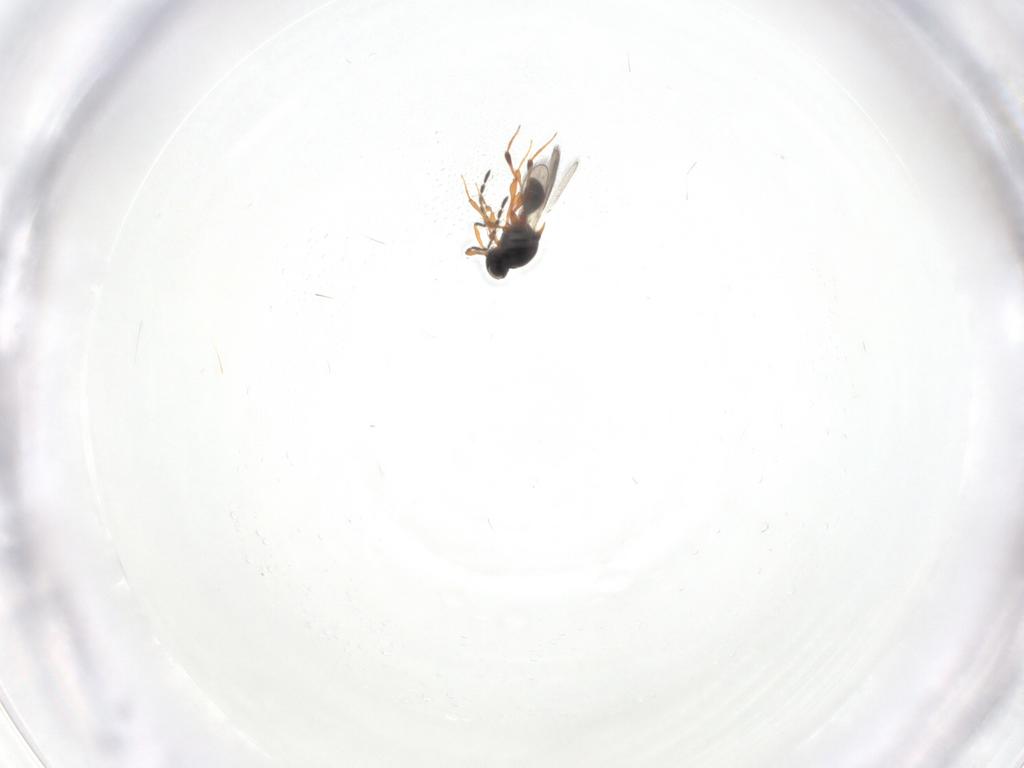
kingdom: Animalia
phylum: Arthropoda
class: Insecta
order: Hymenoptera
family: Platygastridae
